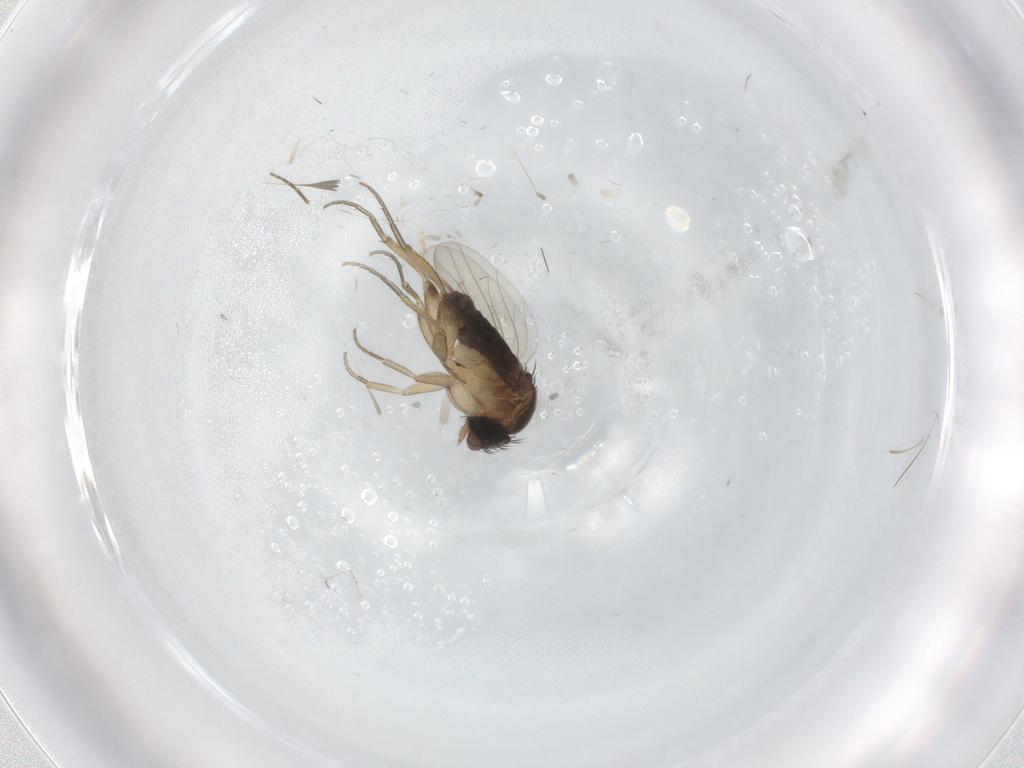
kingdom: Animalia
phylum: Arthropoda
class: Insecta
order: Diptera
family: Phoridae
